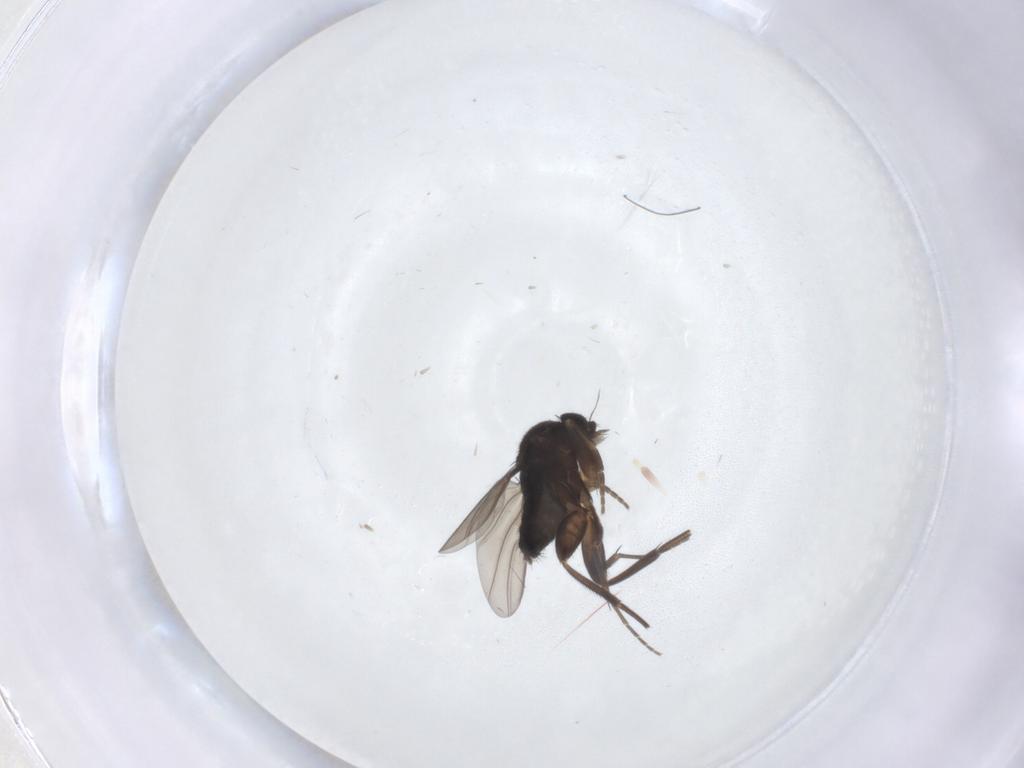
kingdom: Animalia
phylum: Arthropoda
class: Insecta
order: Diptera
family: Phoridae
